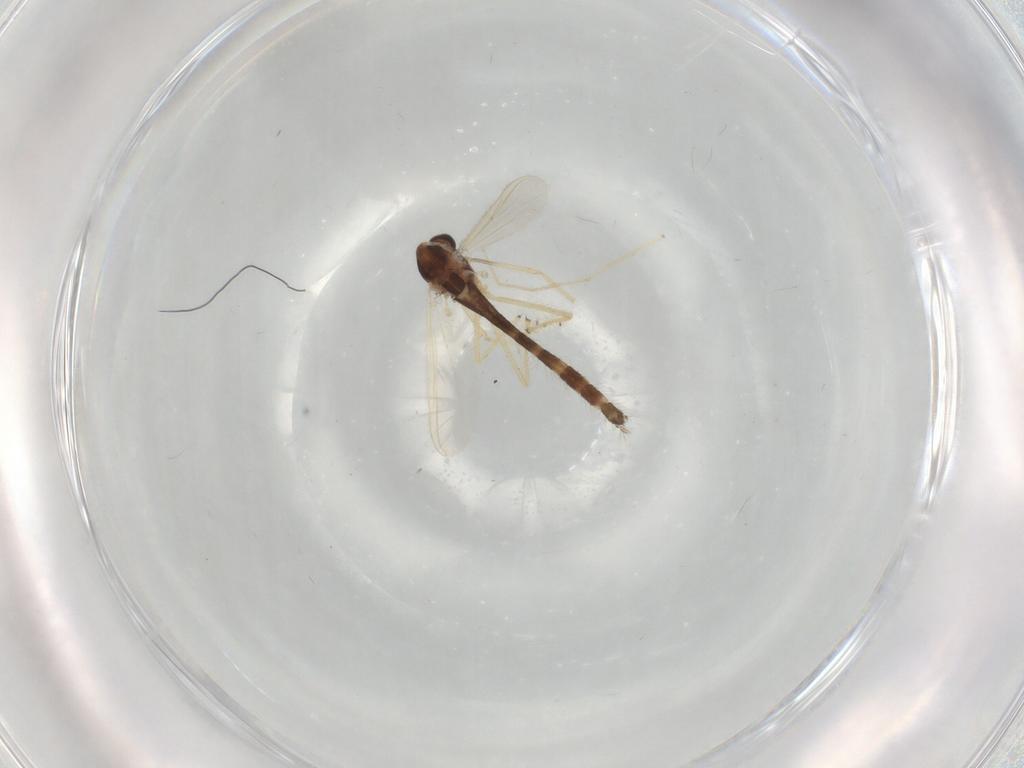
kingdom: Animalia
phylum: Arthropoda
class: Insecta
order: Diptera
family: Chironomidae
